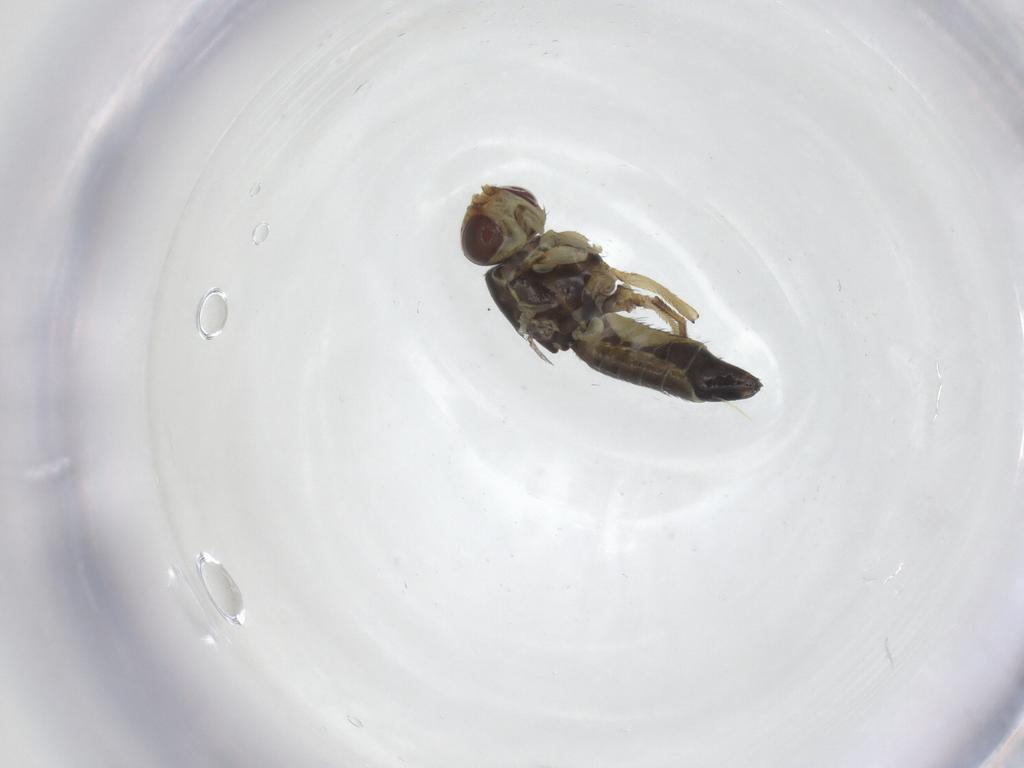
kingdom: Animalia
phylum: Arthropoda
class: Insecta
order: Diptera
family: Agromyzidae
